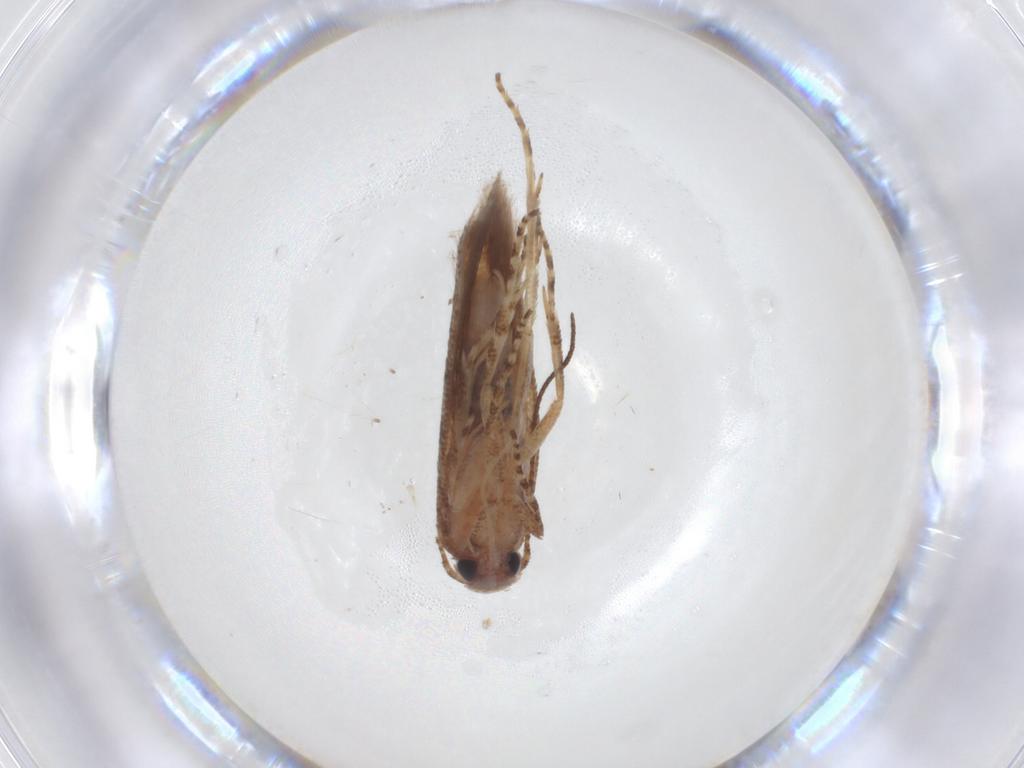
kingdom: Animalia
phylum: Arthropoda
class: Insecta
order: Lepidoptera
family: Gelechiidae
